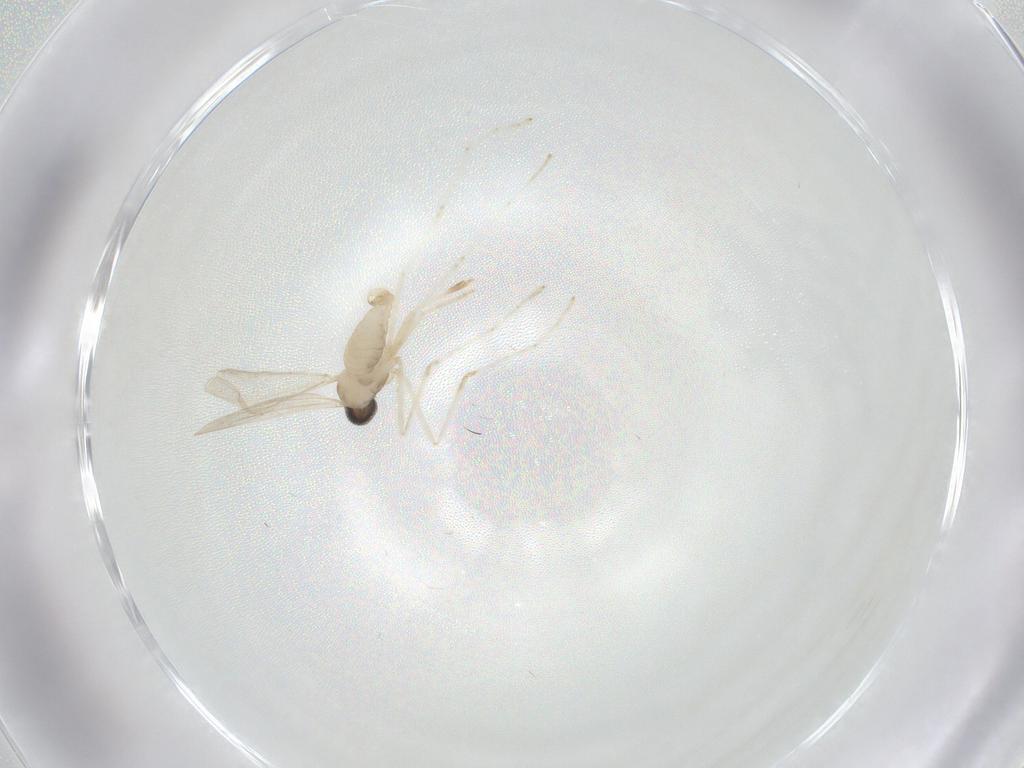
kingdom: Animalia
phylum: Arthropoda
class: Insecta
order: Diptera
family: Cecidomyiidae
